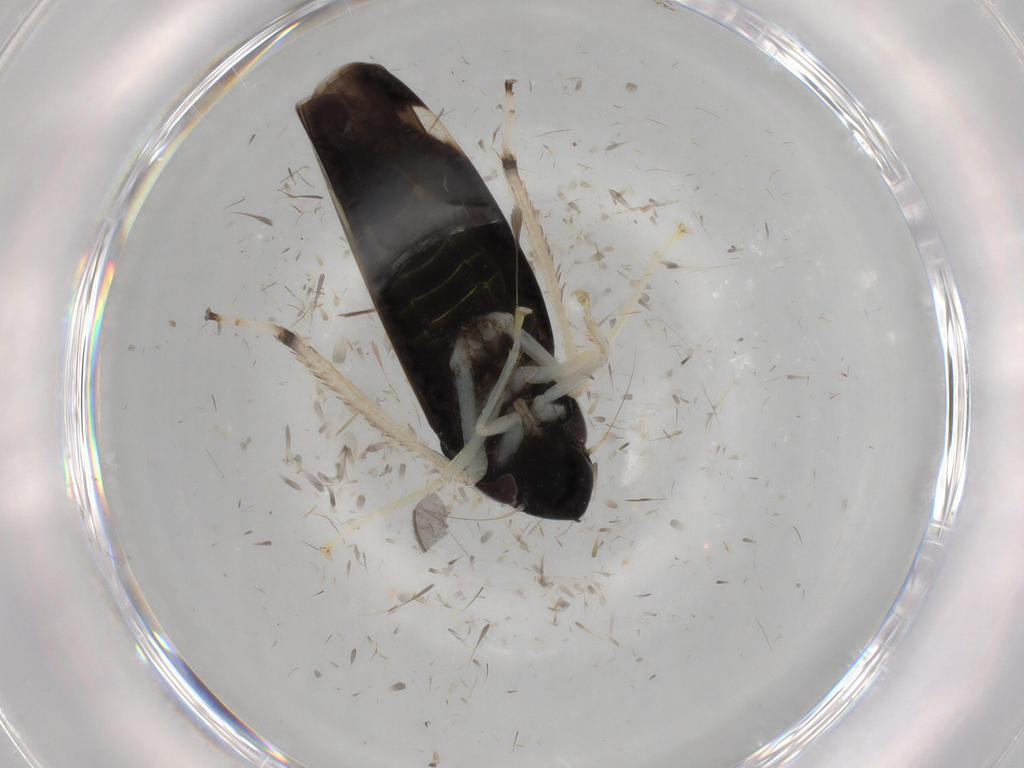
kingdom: Animalia
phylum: Arthropoda
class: Insecta
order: Hemiptera
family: Cicadellidae
